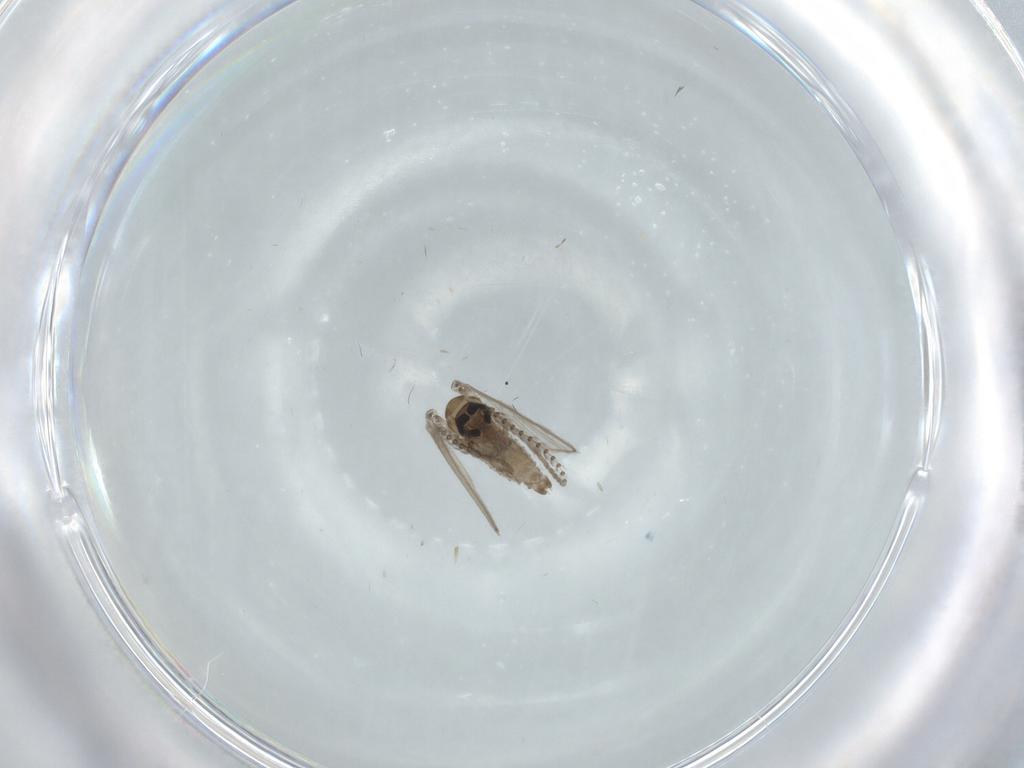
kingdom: Animalia
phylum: Arthropoda
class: Insecta
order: Diptera
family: Psychodidae
